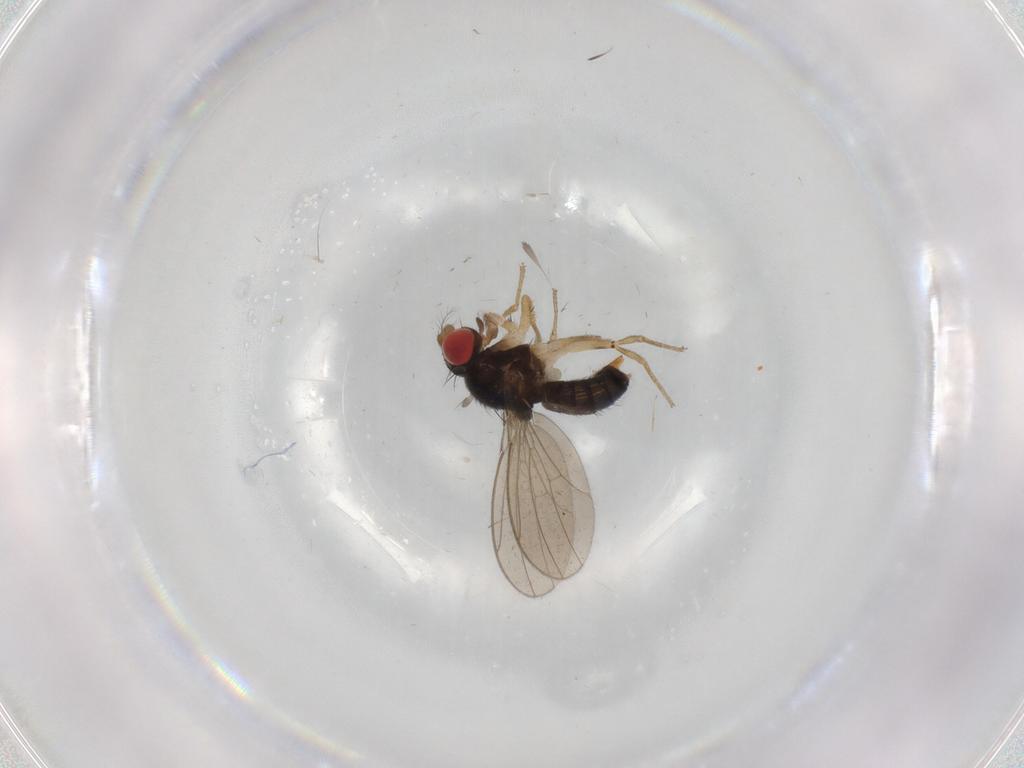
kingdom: Animalia
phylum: Arthropoda
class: Insecta
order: Diptera
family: Drosophilidae
